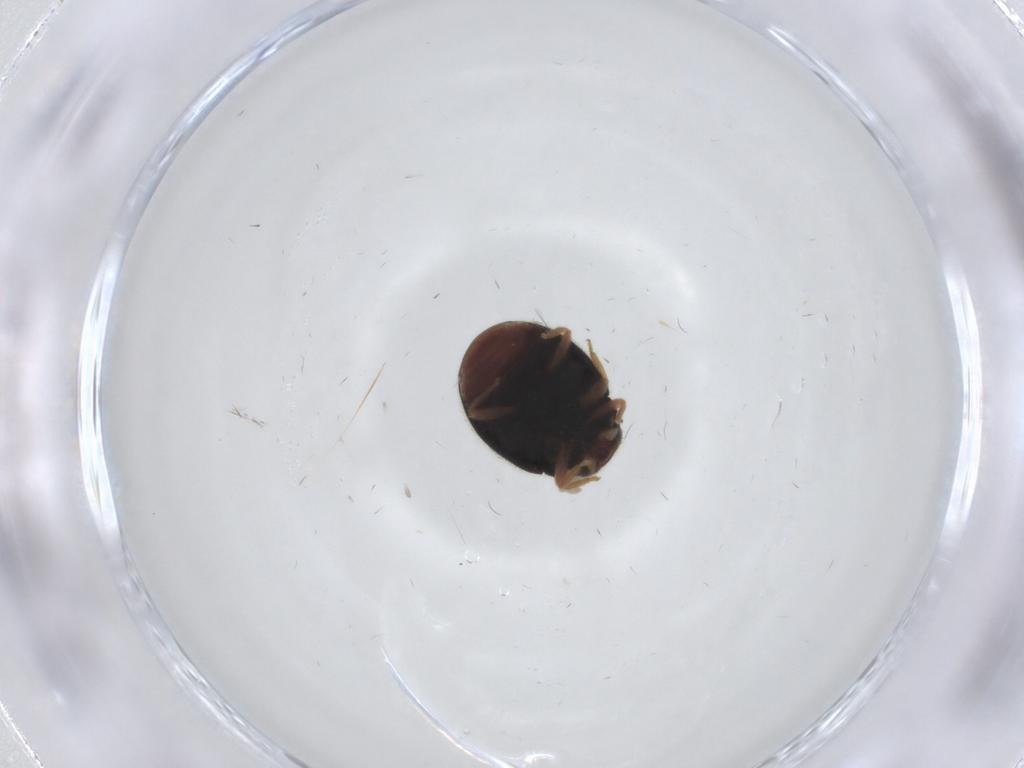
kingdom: Animalia
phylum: Arthropoda
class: Insecta
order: Coleoptera
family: Coccinellidae
